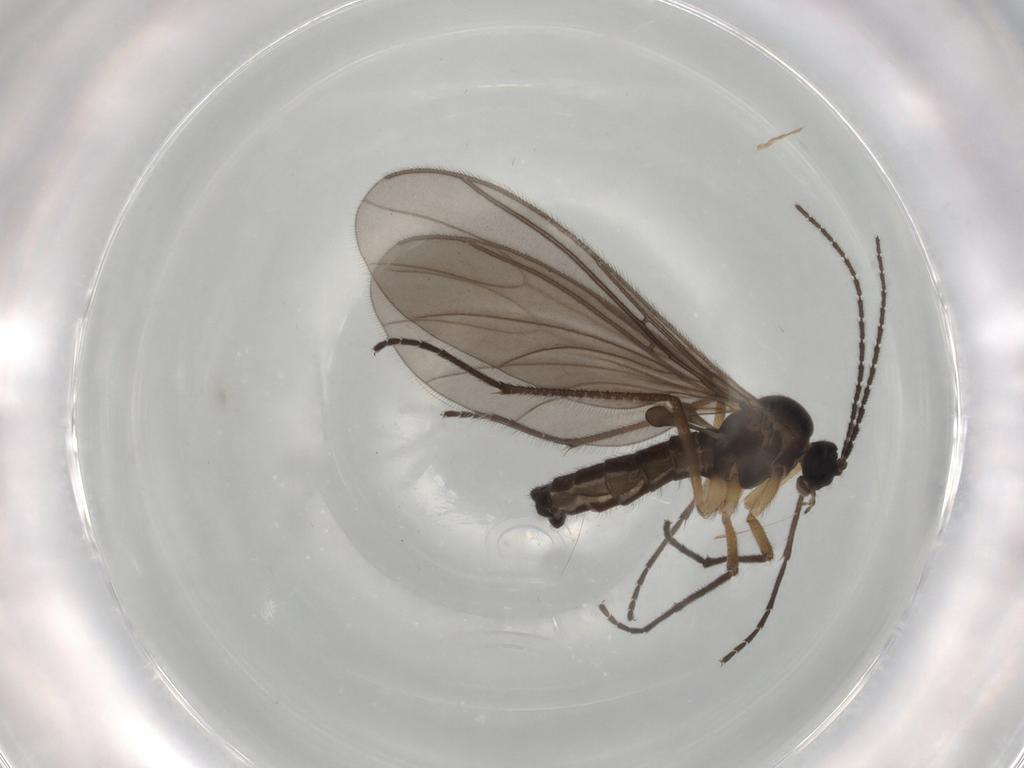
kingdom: Animalia
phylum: Arthropoda
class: Insecta
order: Diptera
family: Sciaridae
